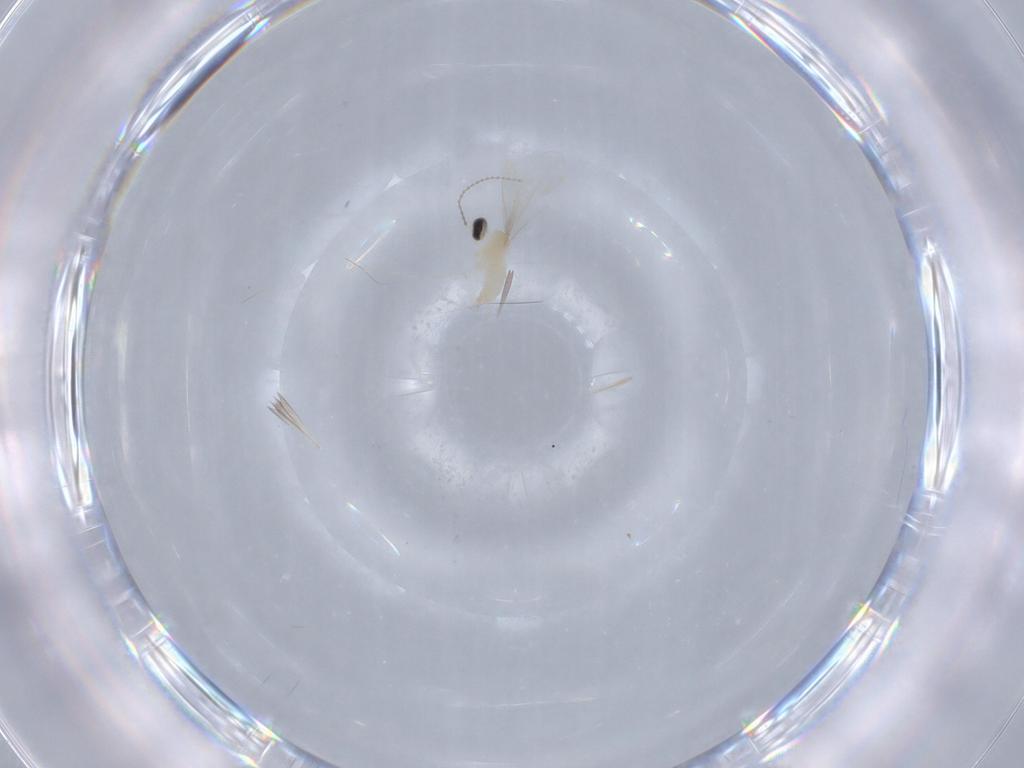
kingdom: Animalia
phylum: Arthropoda
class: Insecta
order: Diptera
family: Cecidomyiidae
